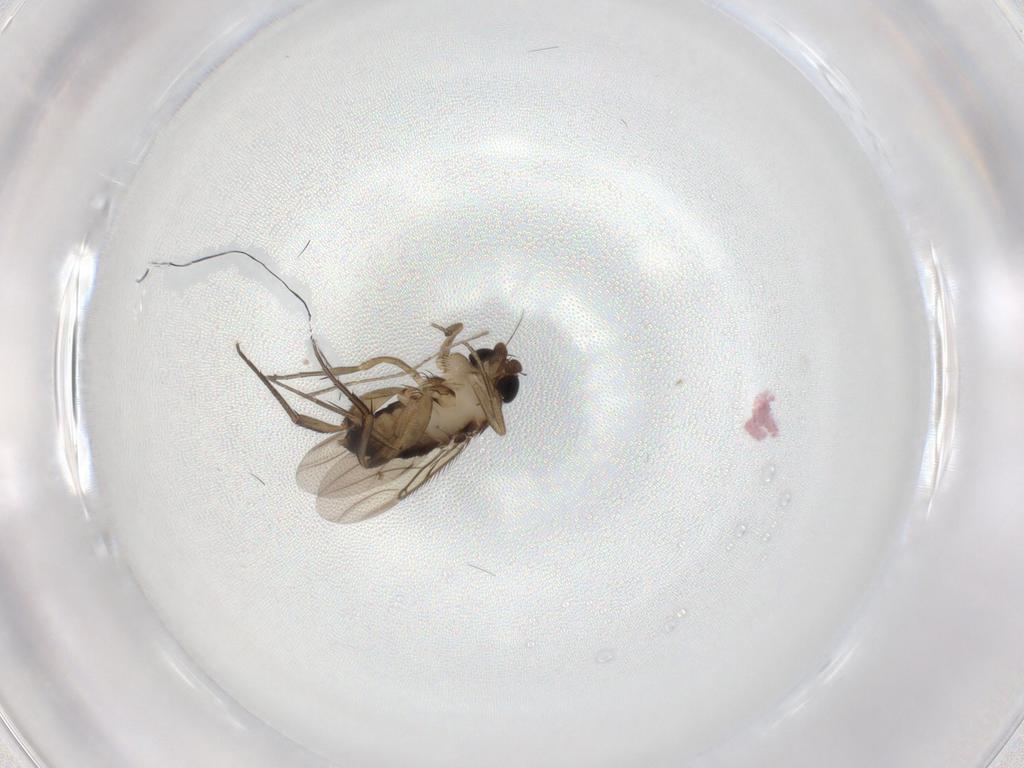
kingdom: Animalia
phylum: Arthropoda
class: Insecta
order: Diptera
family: Phoridae
